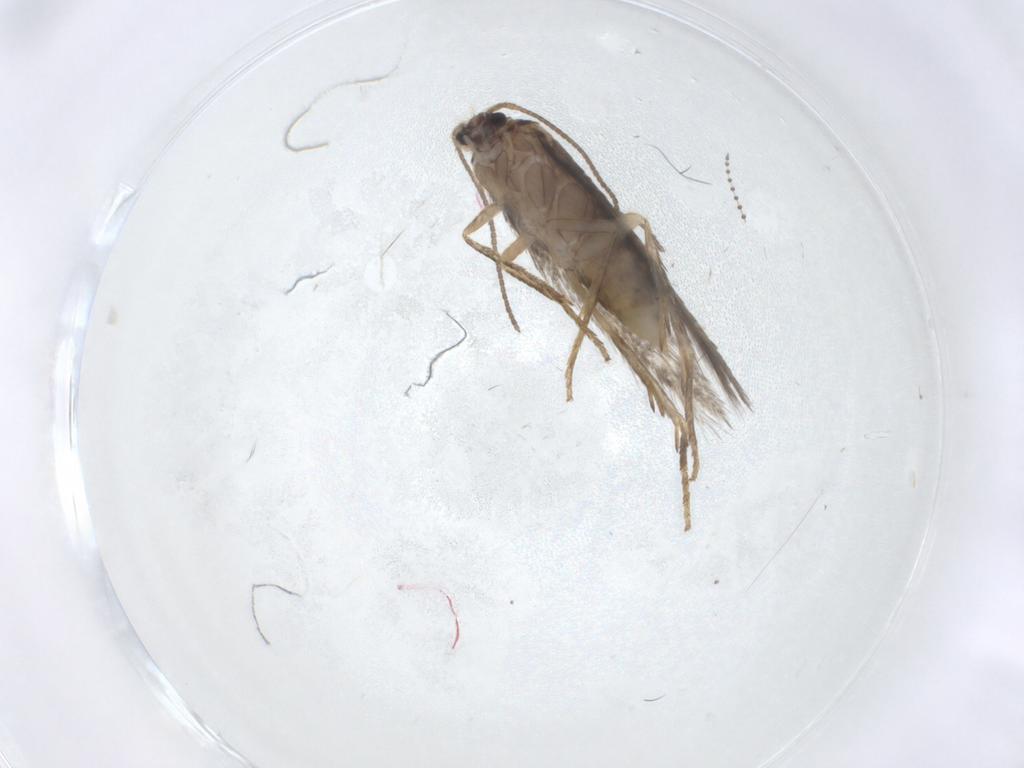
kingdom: Animalia
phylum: Arthropoda
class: Insecta
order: Lepidoptera
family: Nepticulidae
